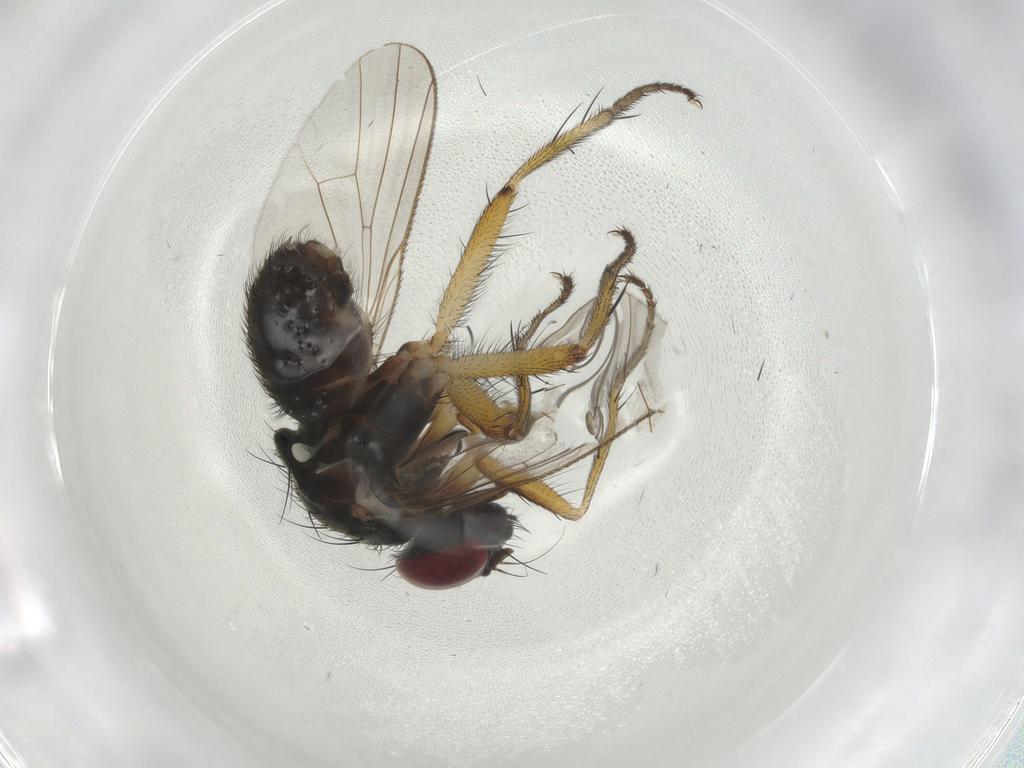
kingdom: Animalia
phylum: Arthropoda
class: Insecta
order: Diptera
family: Muscidae
